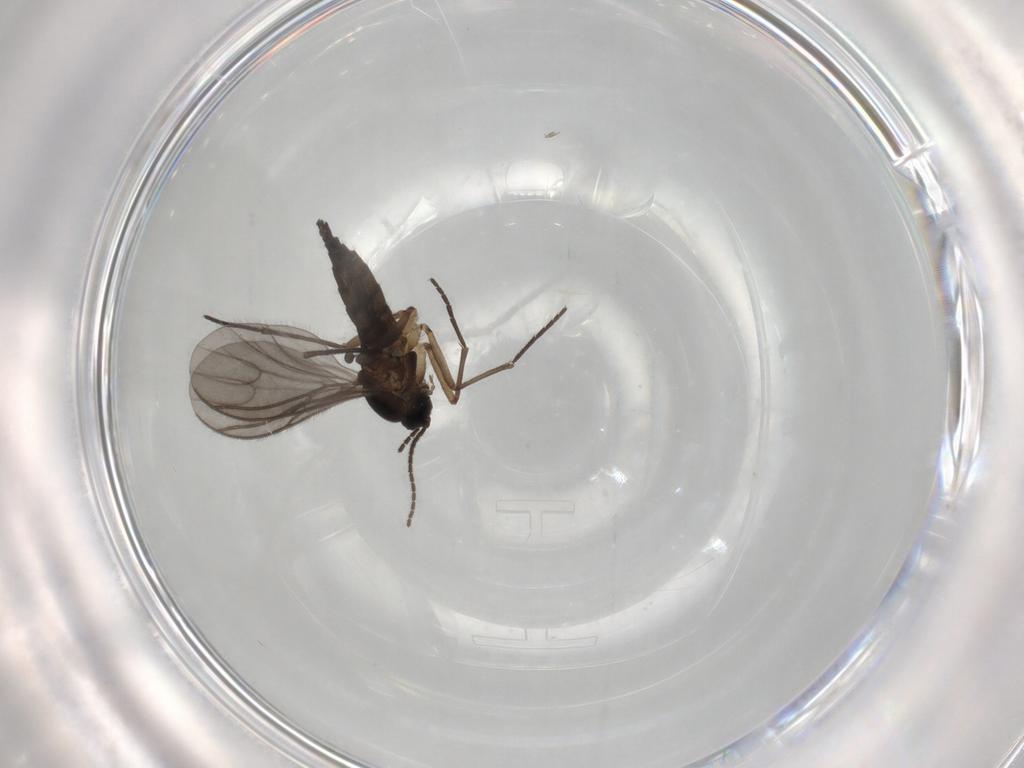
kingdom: Animalia
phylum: Arthropoda
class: Insecta
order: Diptera
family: Sciaridae
